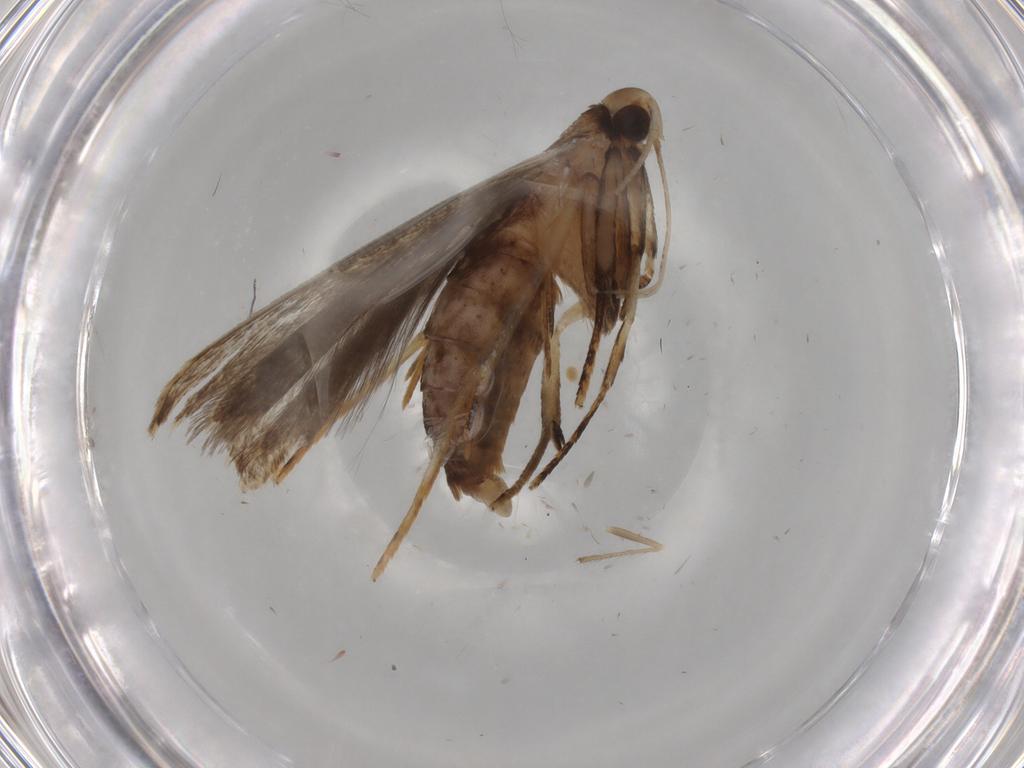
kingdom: Animalia
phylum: Arthropoda
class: Insecta
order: Lepidoptera
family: Gelechiidae
